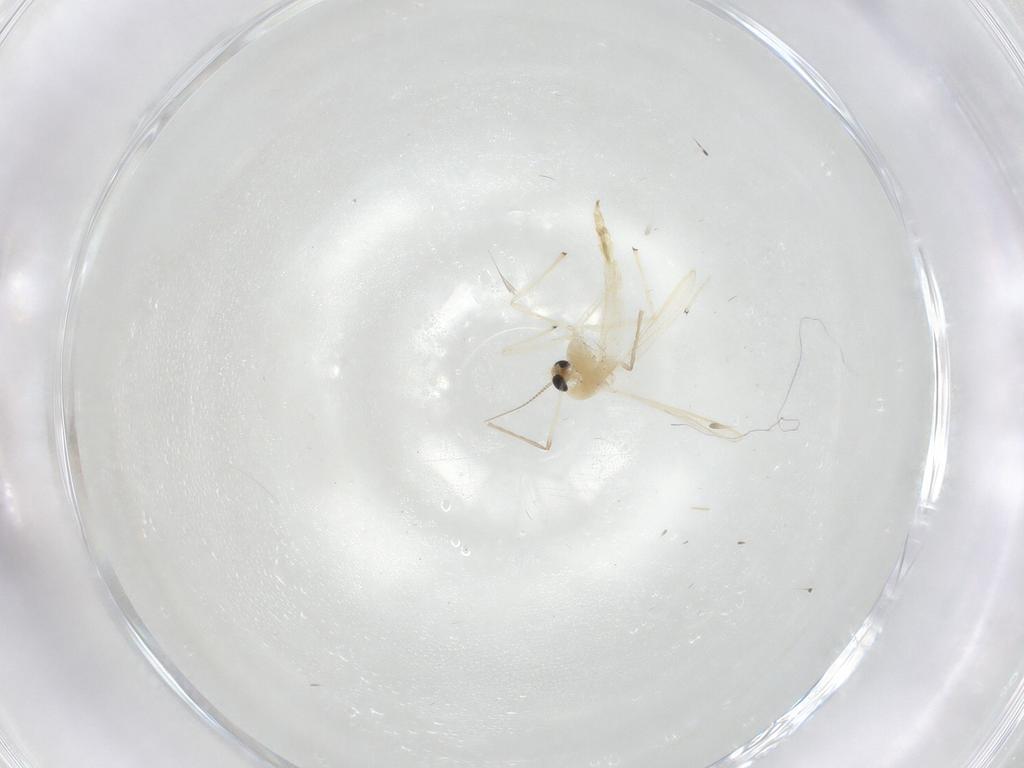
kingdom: Animalia
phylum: Arthropoda
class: Insecta
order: Diptera
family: Chironomidae
